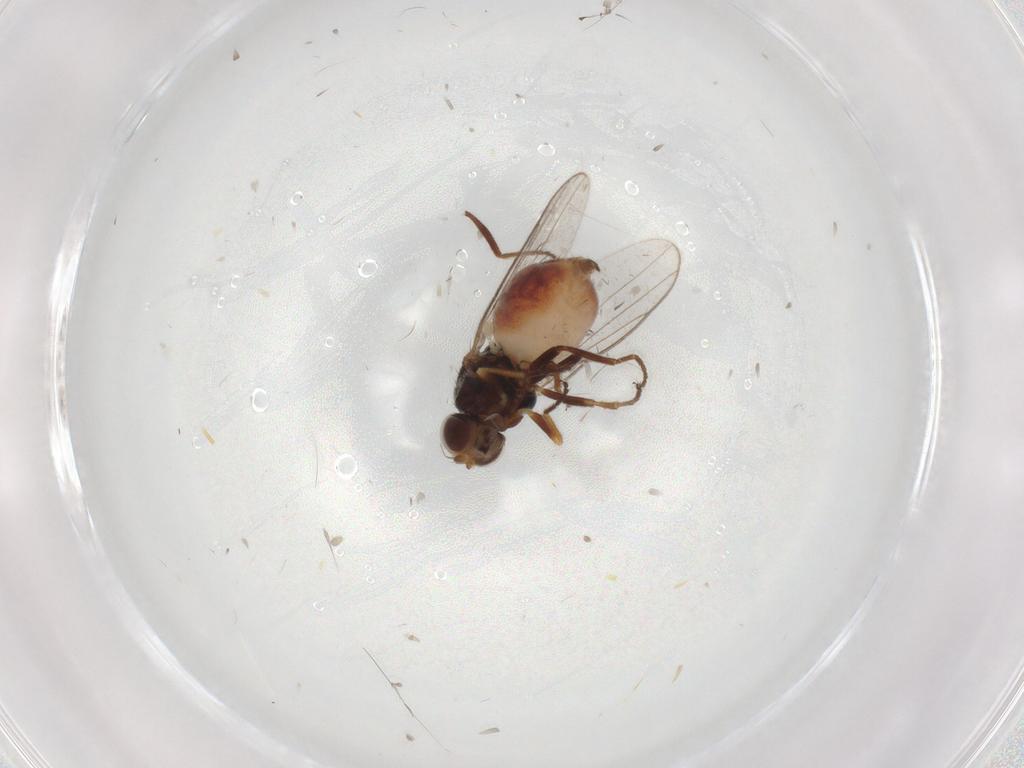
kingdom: Animalia
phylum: Arthropoda
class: Insecta
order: Diptera
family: Chloropidae
